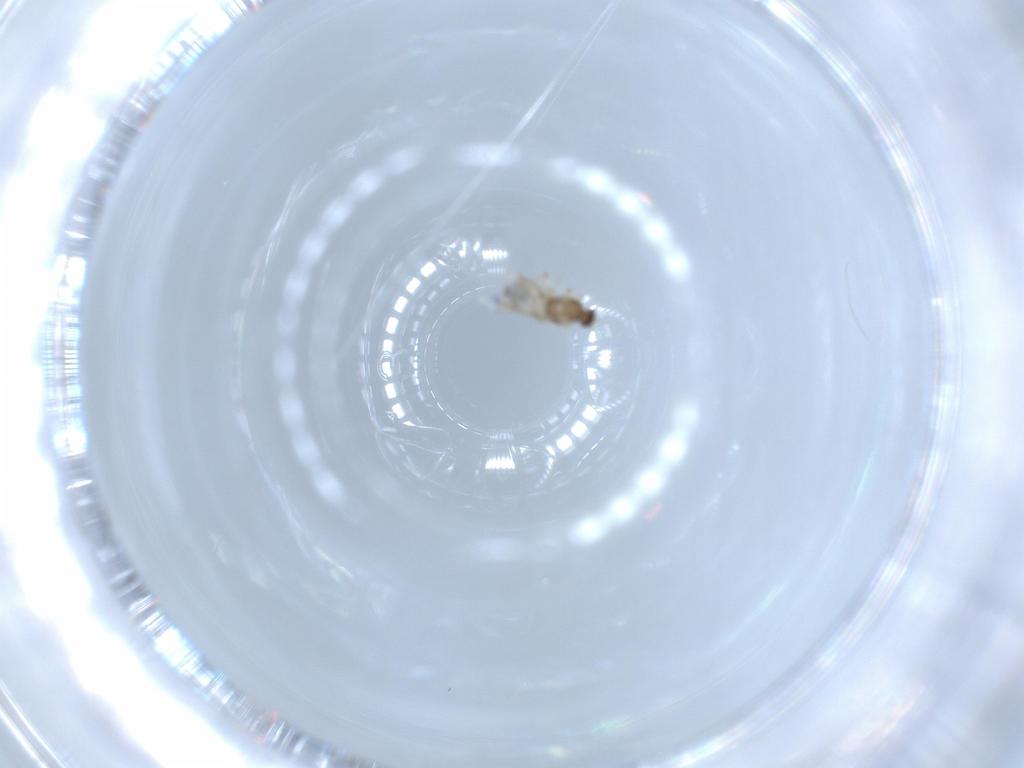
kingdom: Animalia
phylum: Arthropoda
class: Insecta
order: Diptera
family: Cecidomyiidae
